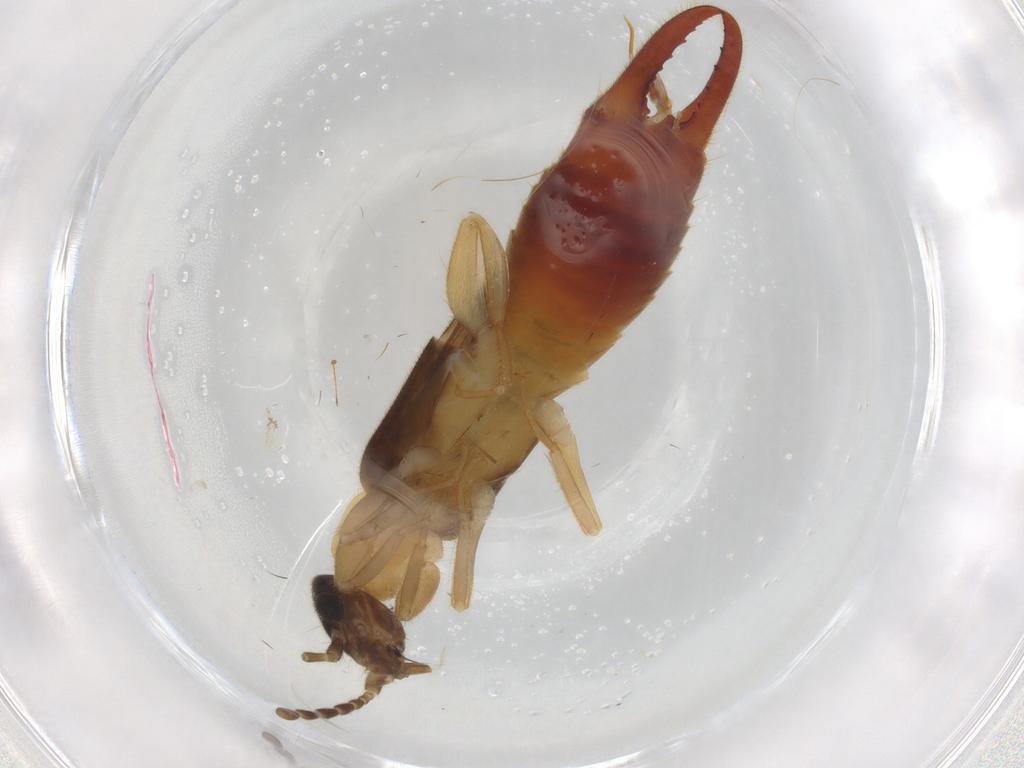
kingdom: Animalia
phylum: Arthropoda
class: Insecta
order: Dermaptera
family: Spongiphoridae
